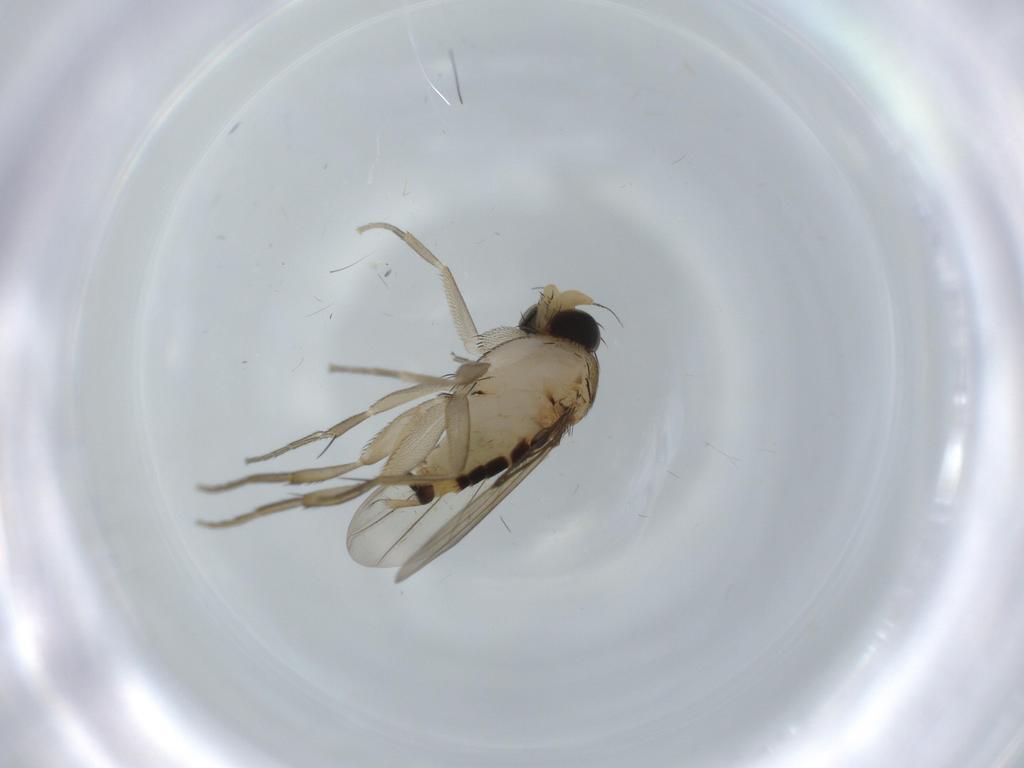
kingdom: Animalia
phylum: Arthropoda
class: Insecta
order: Diptera
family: Phoridae
